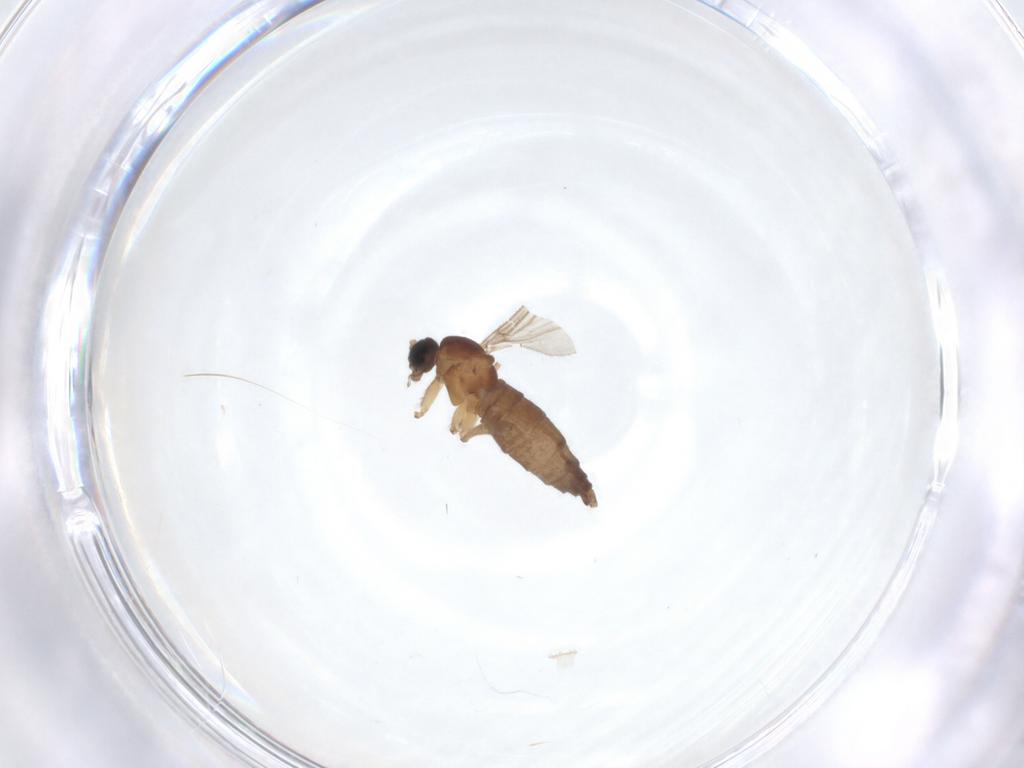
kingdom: Animalia
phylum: Arthropoda
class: Insecta
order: Diptera
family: Sciaridae
